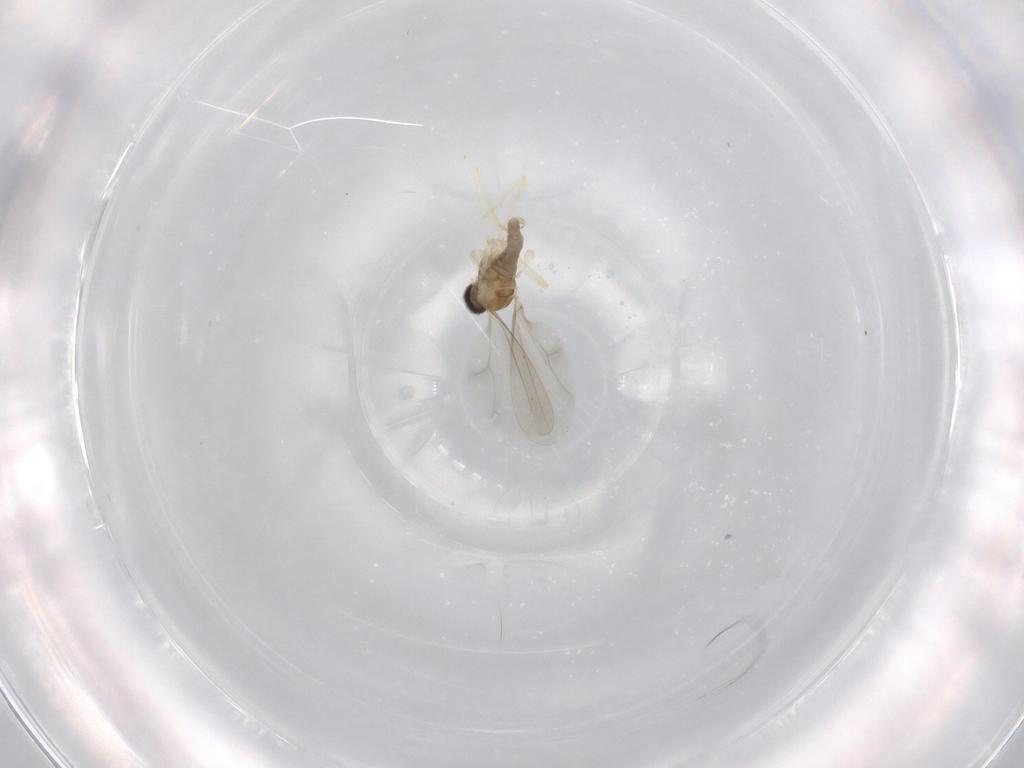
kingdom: Animalia
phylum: Arthropoda
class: Insecta
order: Diptera
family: Cecidomyiidae
